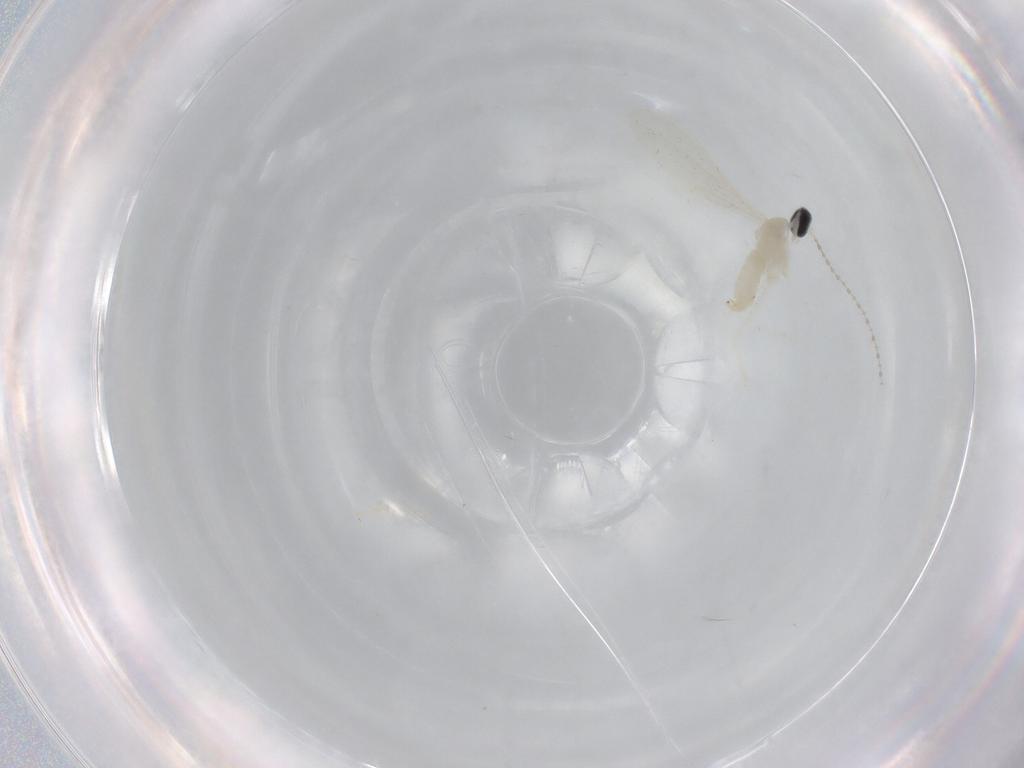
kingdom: Animalia
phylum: Arthropoda
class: Insecta
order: Diptera
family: Cecidomyiidae
